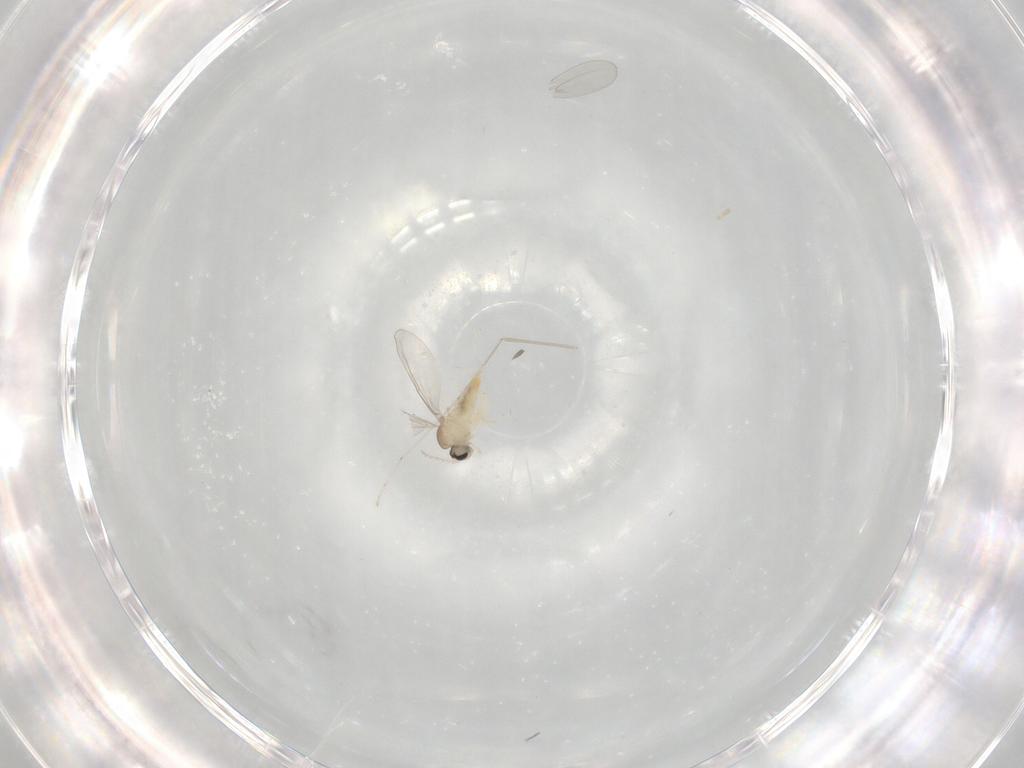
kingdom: Animalia
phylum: Arthropoda
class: Insecta
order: Diptera
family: Cecidomyiidae
